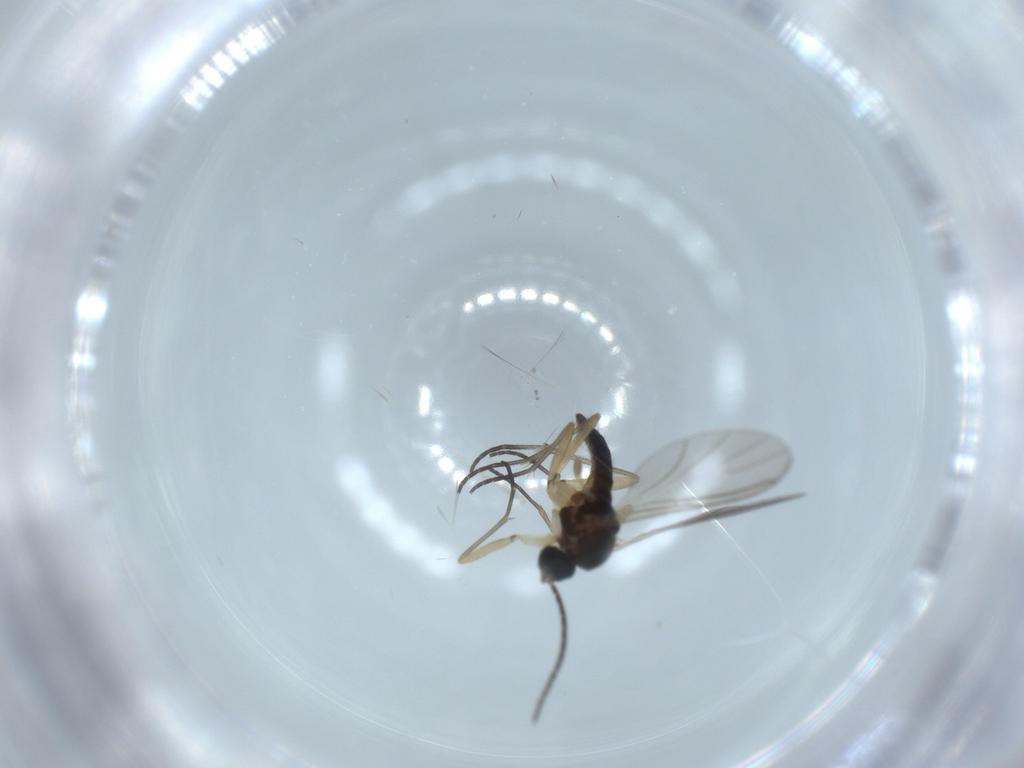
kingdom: Animalia
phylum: Arthropoda
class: Insecta
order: Diptera
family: Sciaridae
